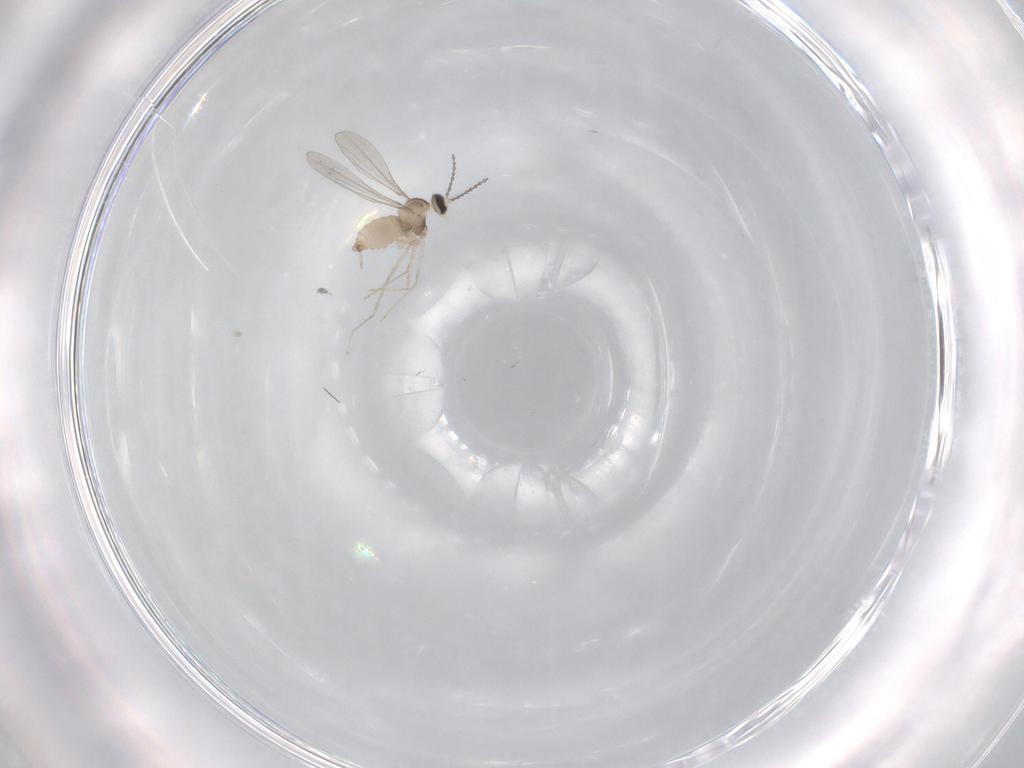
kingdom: Animalia
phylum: Arthropoda
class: Insecta
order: Diptera
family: Cecidomyiidae
